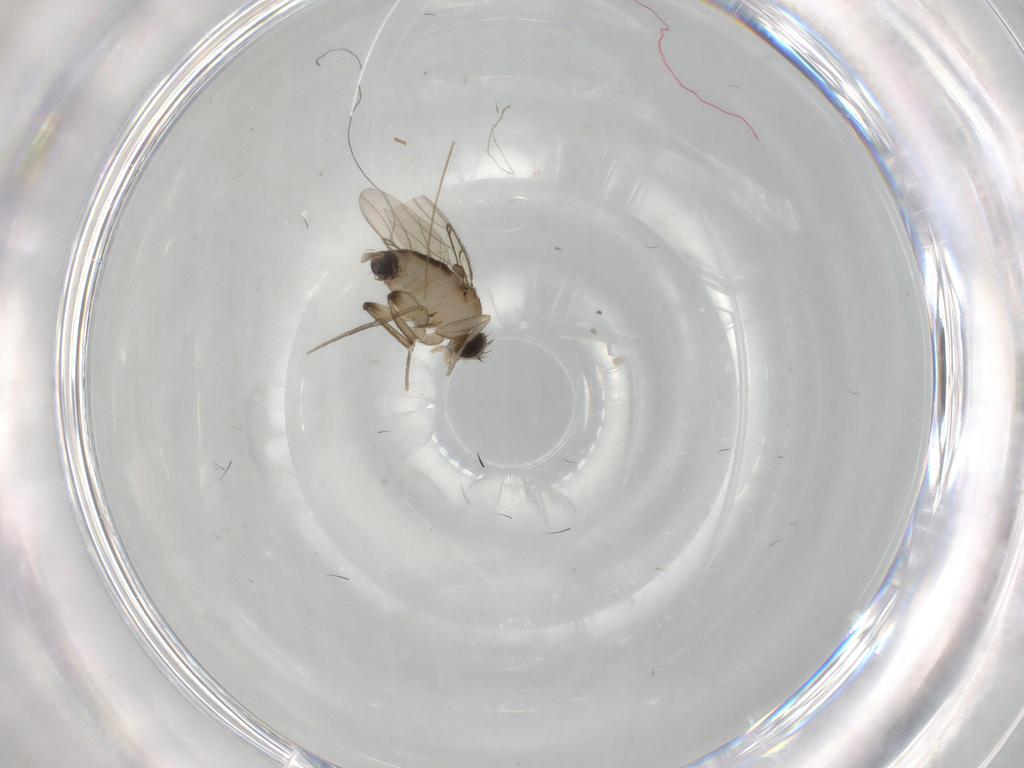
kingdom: Animalia
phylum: Arthropoda
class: Insecta
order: Diptera
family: Phoridae
